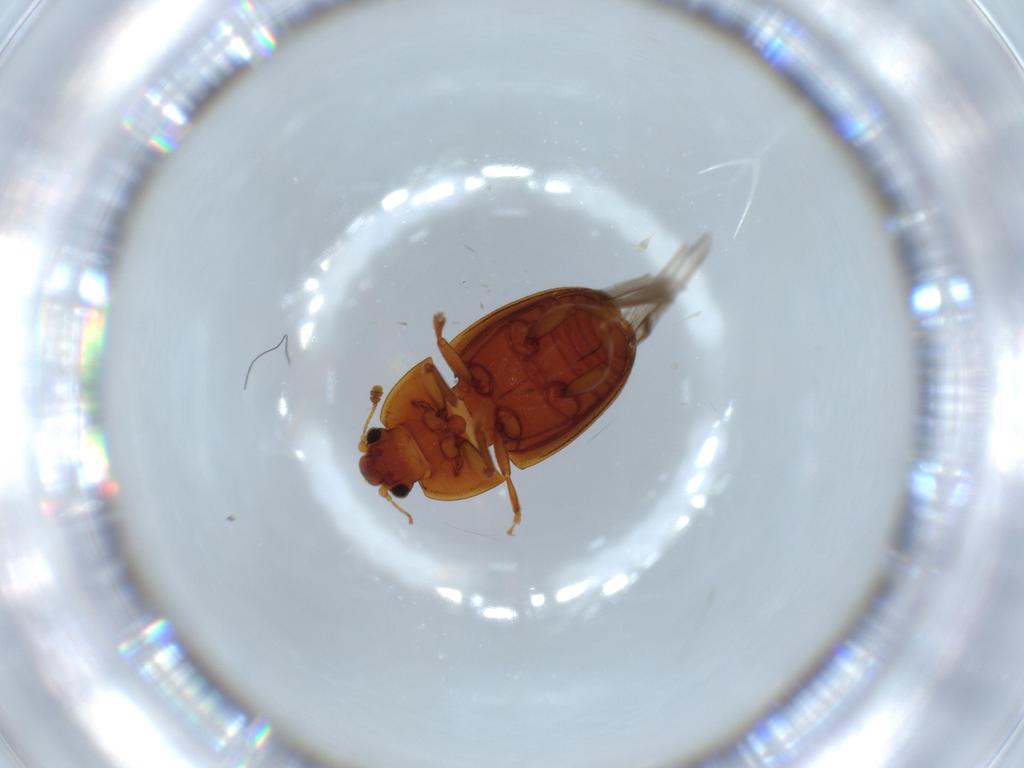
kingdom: Animalia
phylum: Arthropoda
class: Insecta
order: Coleoptera
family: Nitidulidae
